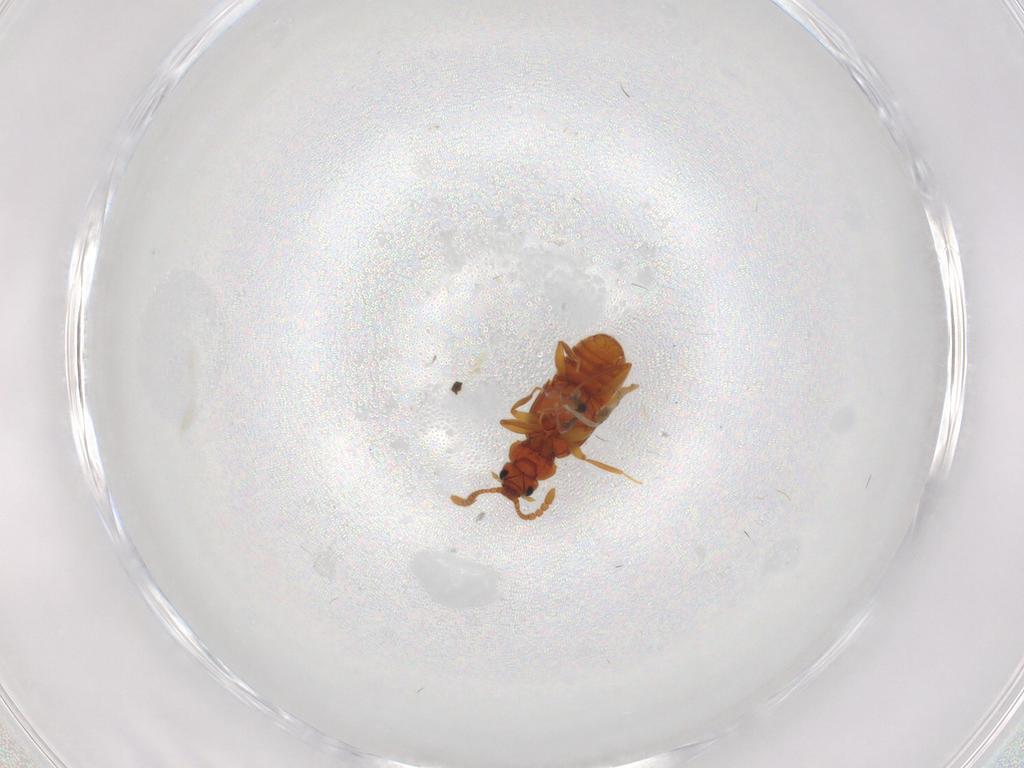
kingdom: Animalia
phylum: Arthropoda
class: Insecta
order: Coleoptera
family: Staphylinidae
